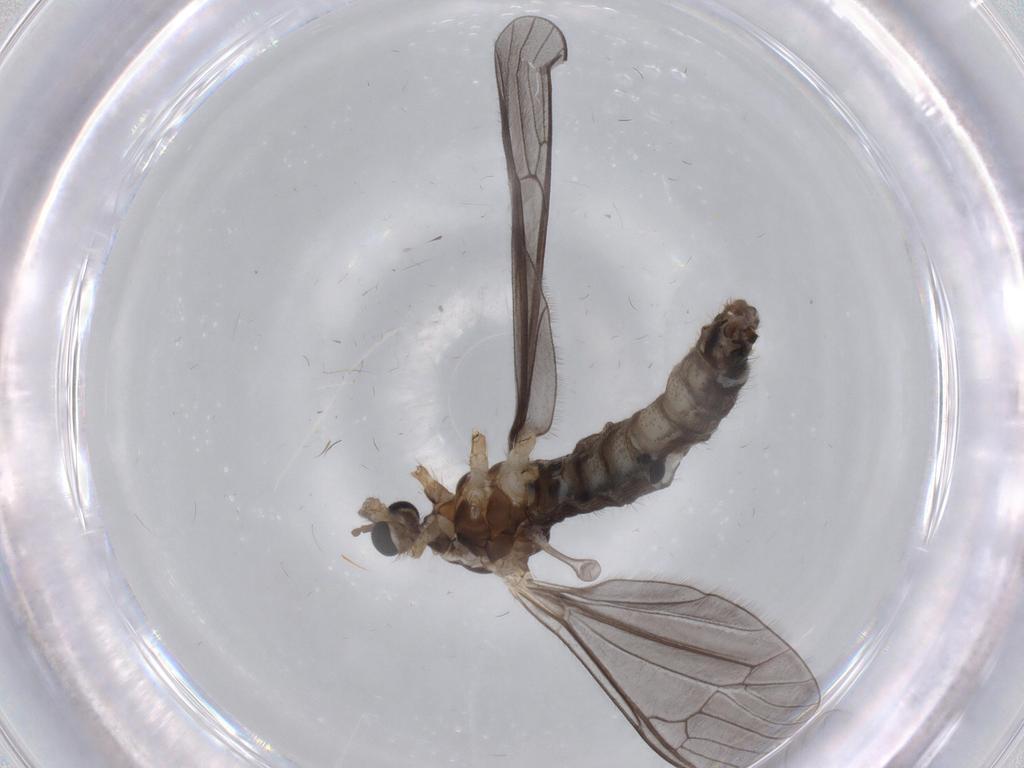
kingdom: Animalia
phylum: Arthropoda
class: Insecta
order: Diptera
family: Limoniidae
